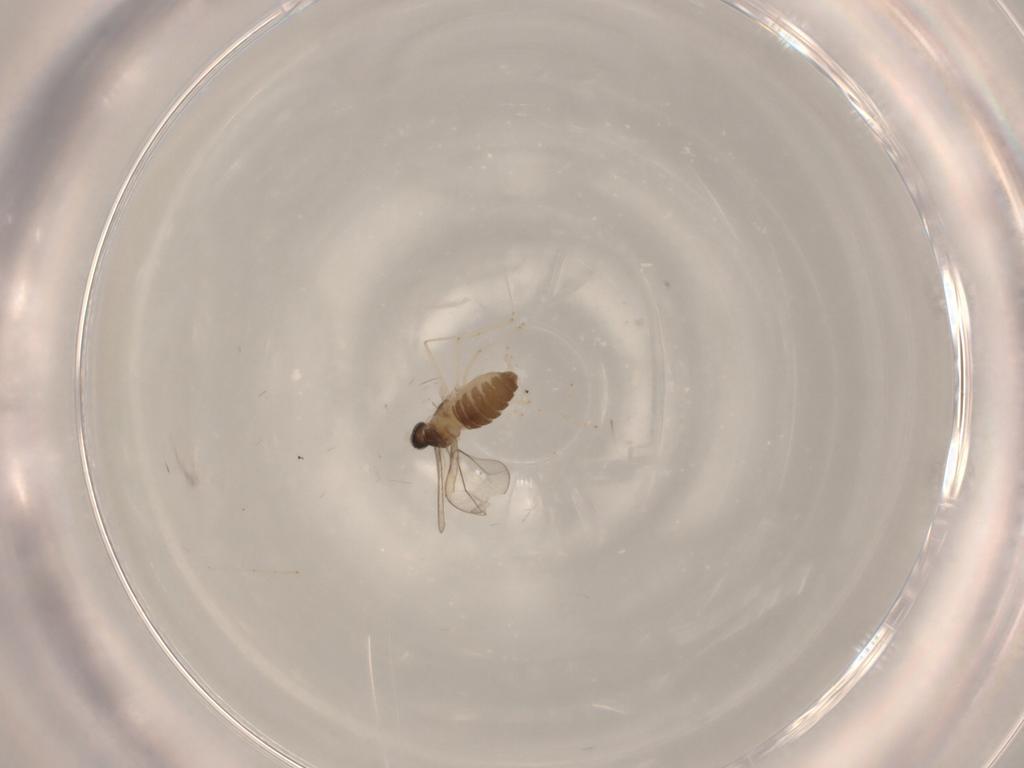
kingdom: Animalia
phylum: Arthropoda
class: Insecta
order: Diptera
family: Cecidomyiidae
